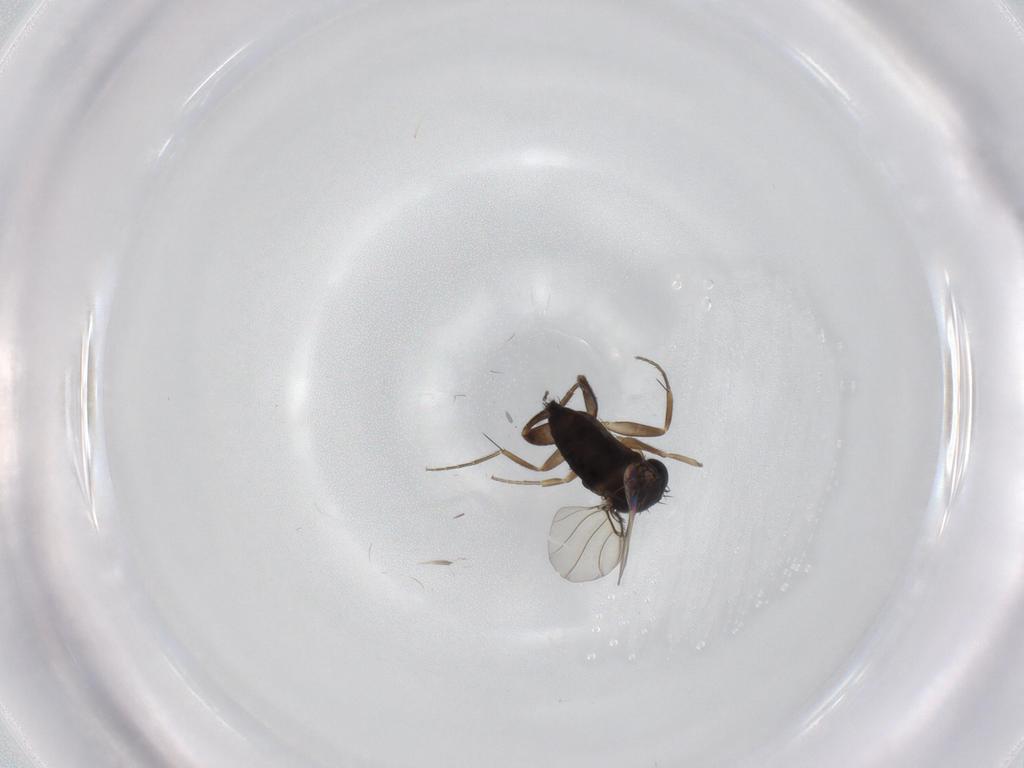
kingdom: Animalia
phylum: Arthropoda
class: Insecta
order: Diptera
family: Phoridae
